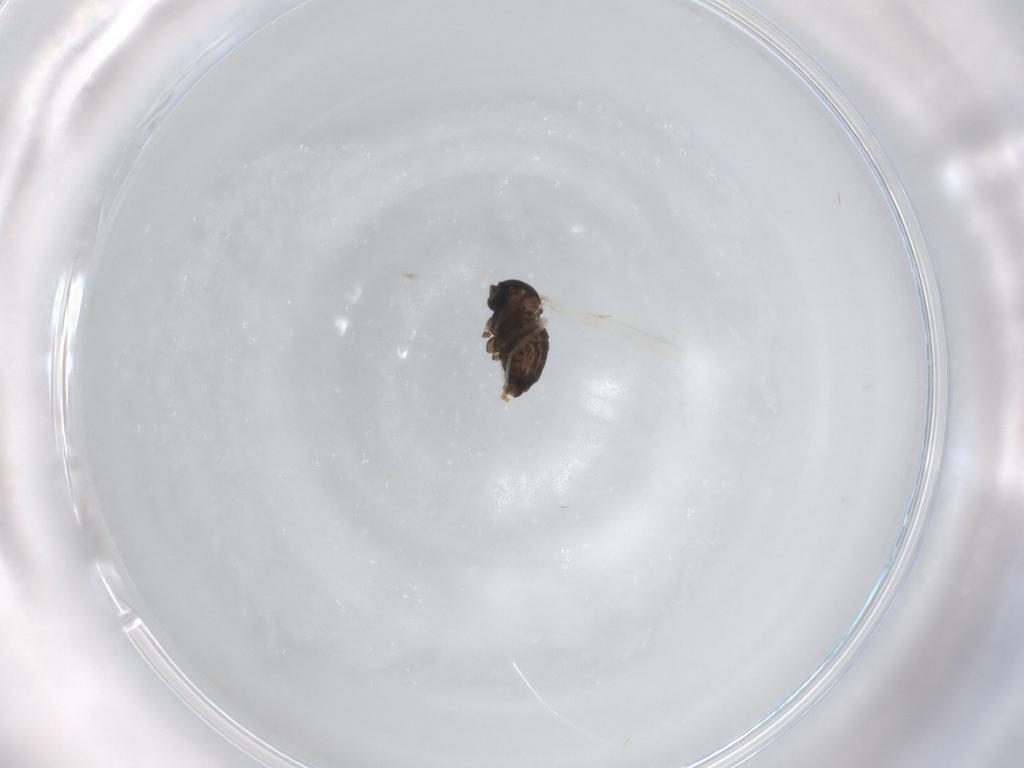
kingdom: Animalia
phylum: Arthropoda
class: Insecta
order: Diptera
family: Cecidomyiidae
